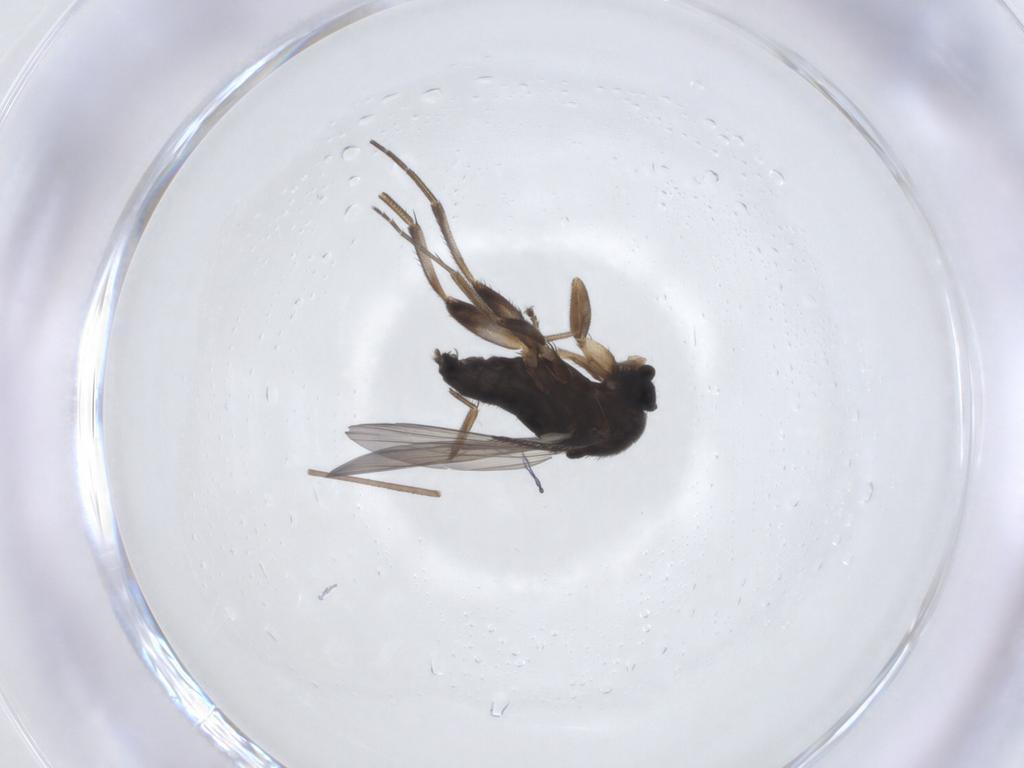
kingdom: Animalia
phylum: Arthropoda
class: Insecta
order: Diptera
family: Phoridae
